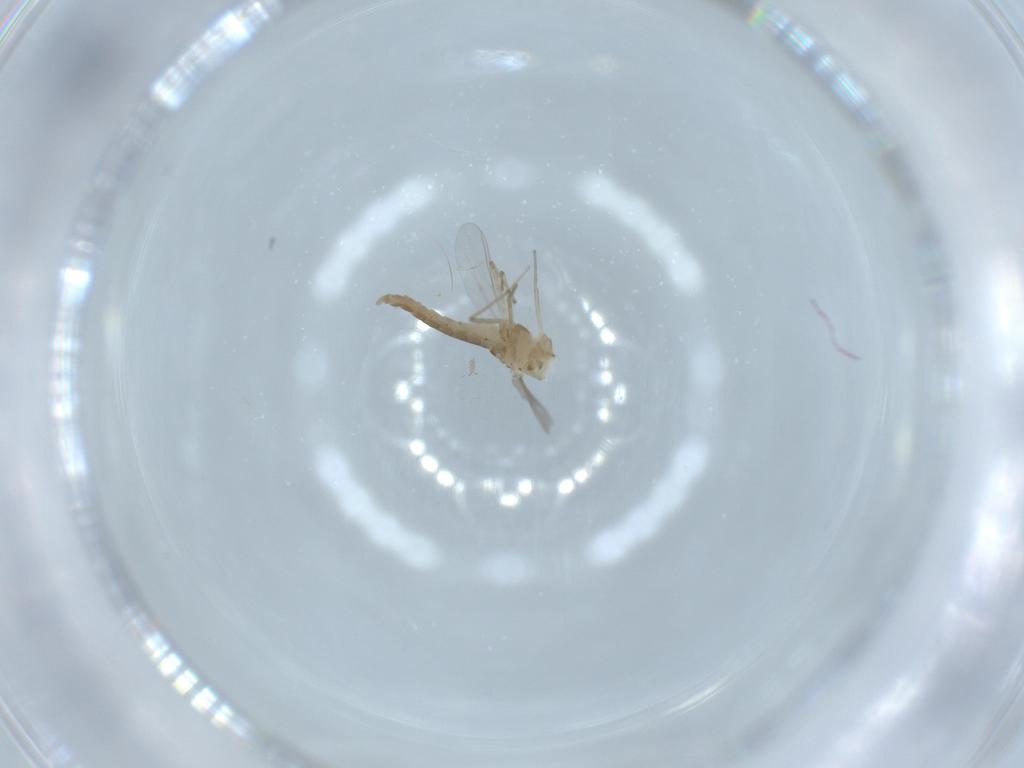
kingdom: Animalia
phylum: Arthropoda
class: Insecta
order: Diptera
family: Chironomidae
